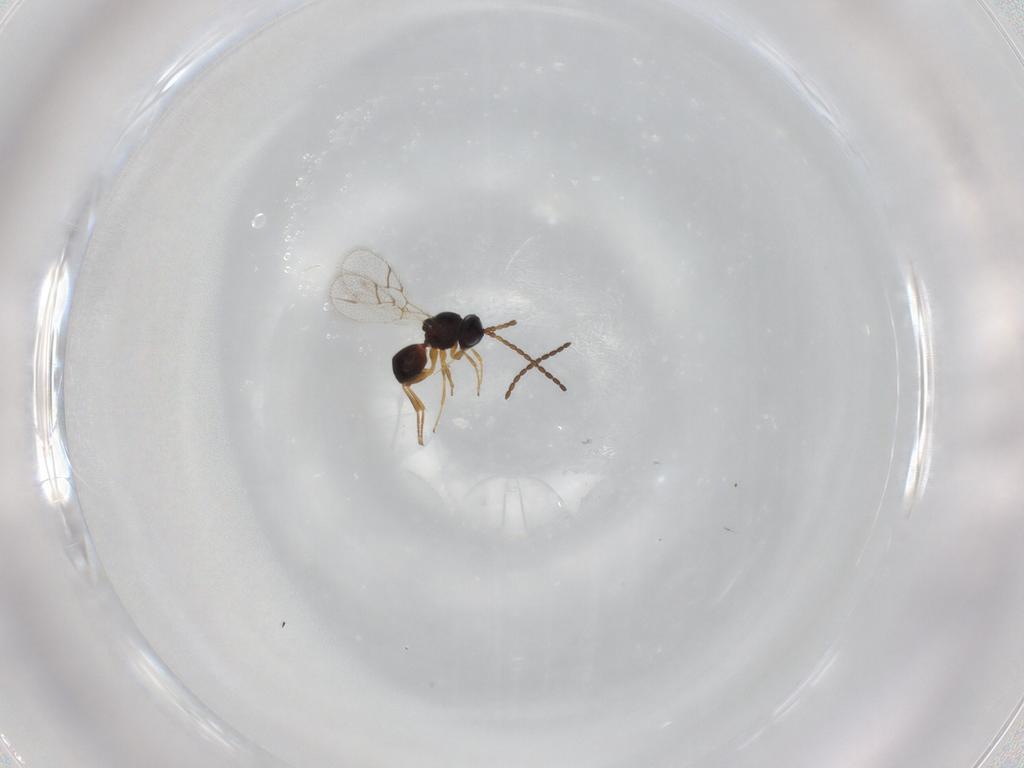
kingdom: Animalia
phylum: Arthropoda
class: Insecta
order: Hymenoptera
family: Figitidae
